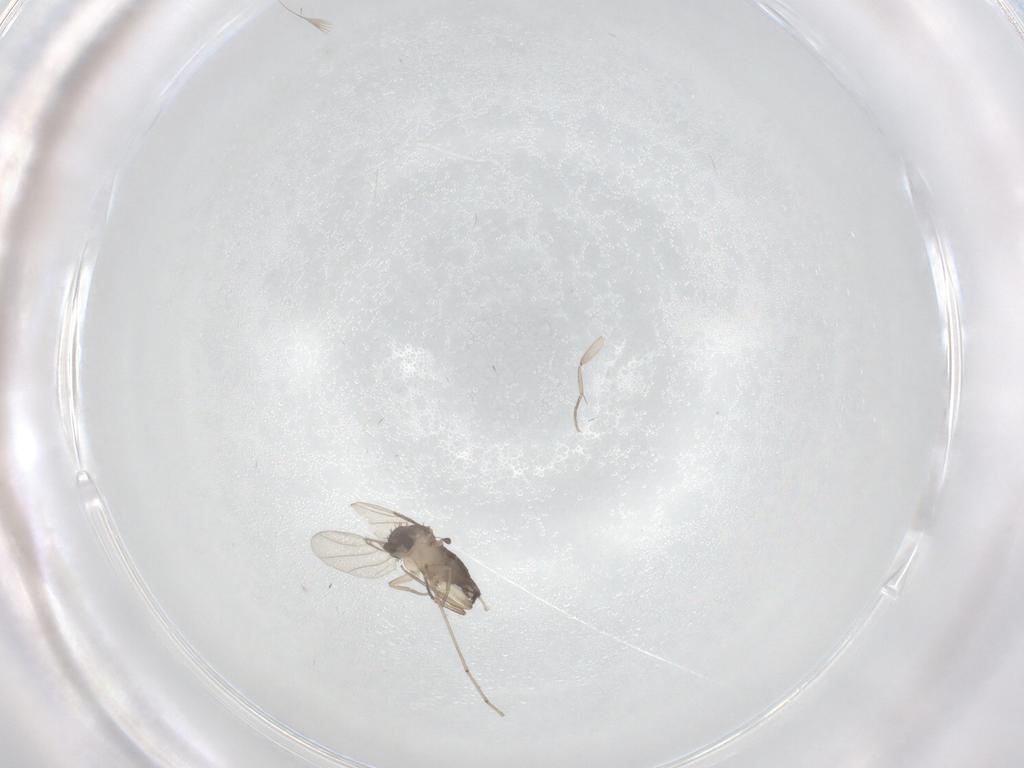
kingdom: Animalia
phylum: Arthropoda
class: Insecta
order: Diptera
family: Phoridae
